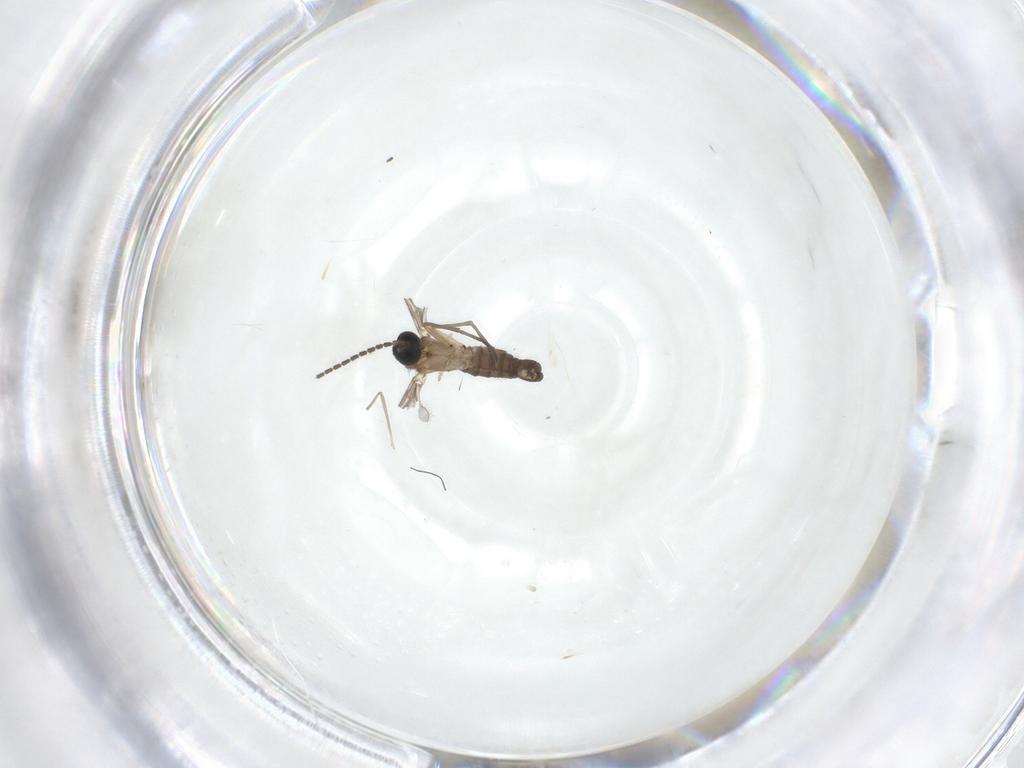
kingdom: Animalia
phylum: Arthropoda
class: Insecta
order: Diptera
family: Sciaridae
